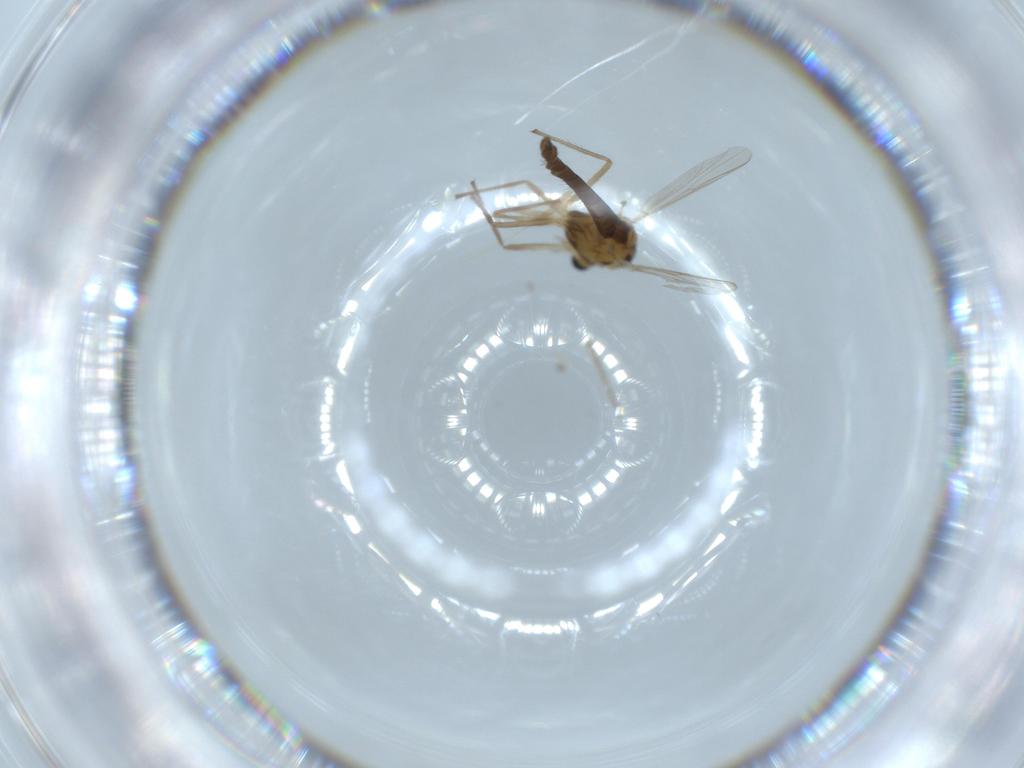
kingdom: Animalia
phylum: Arthropoda
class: Insecta
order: Diptera
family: Chironomidae
